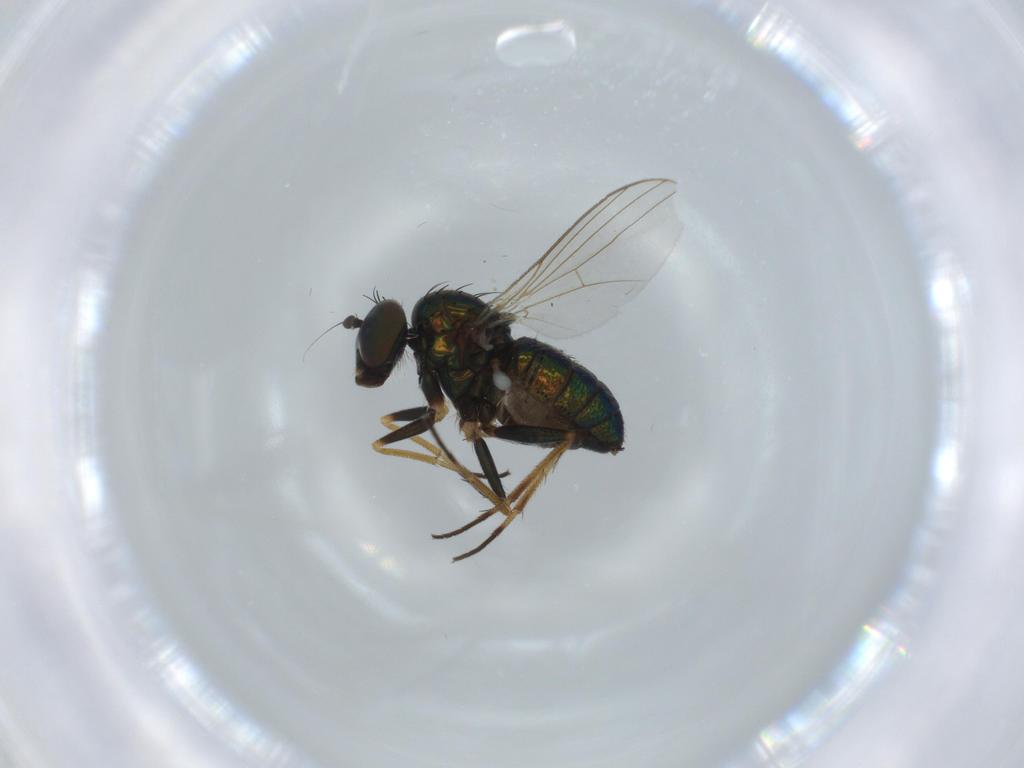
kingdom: Animalia
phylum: Arthropoda
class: Insecta
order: Diptera
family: Dolichopodidae
